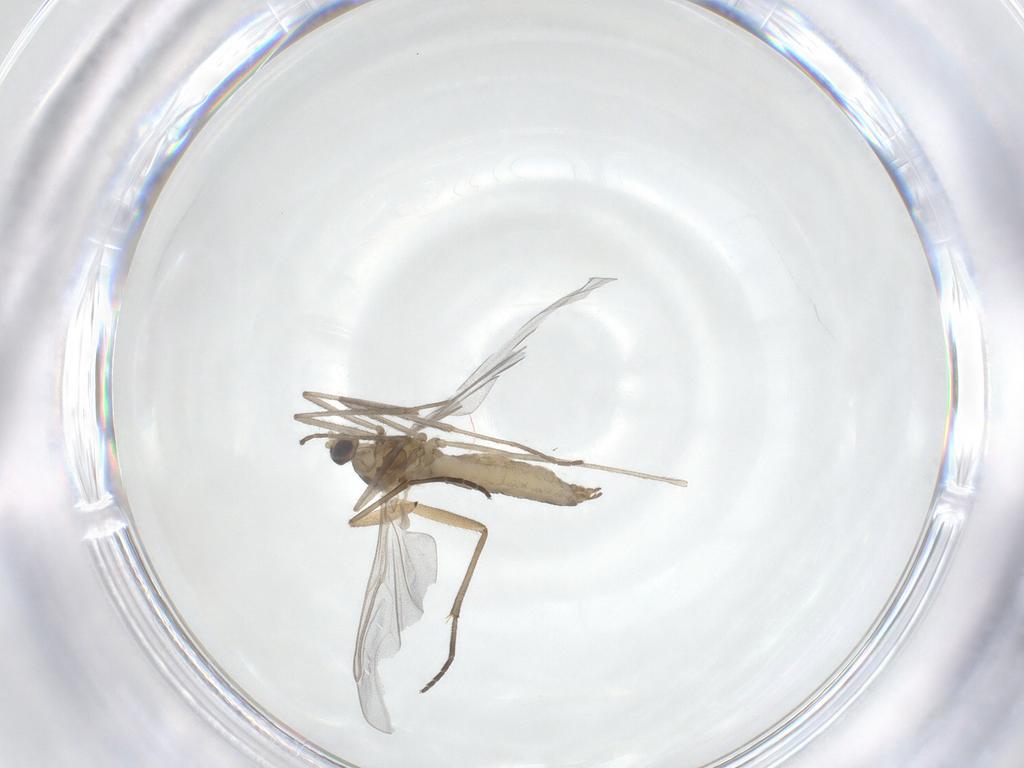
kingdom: Animalia
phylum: Arthropoda
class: Insecta
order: Diptera
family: Cecidomyiidae
